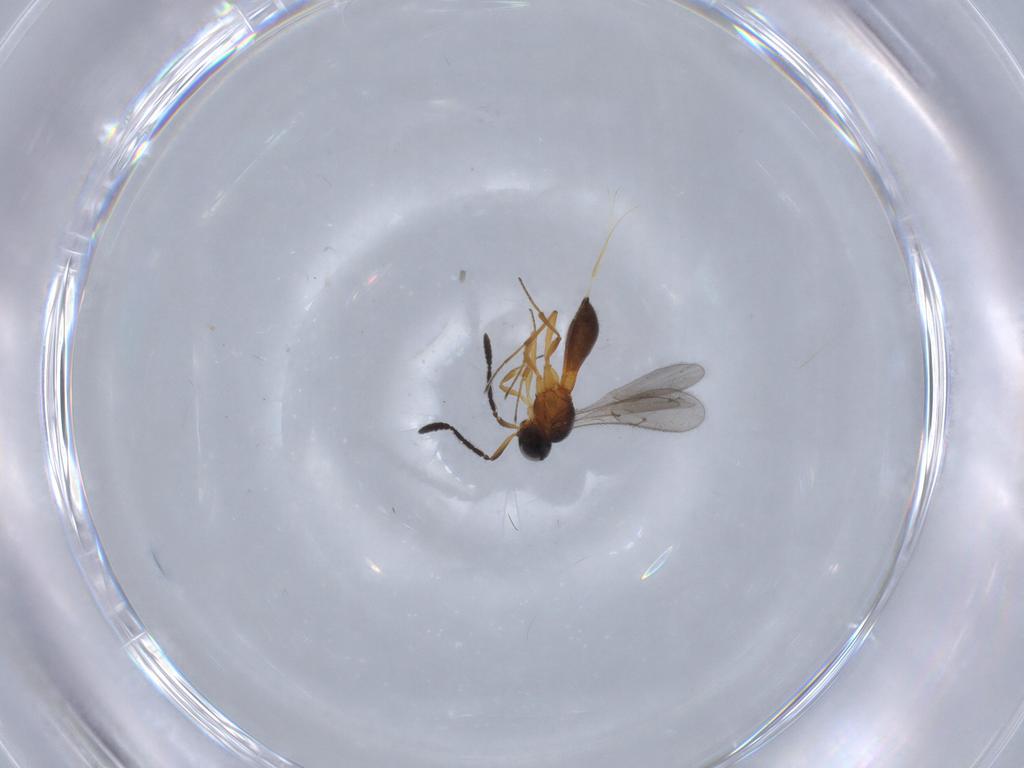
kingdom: Animalia
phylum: Arthropoda
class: Insecta
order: Hymenoptera
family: Scelionidae
